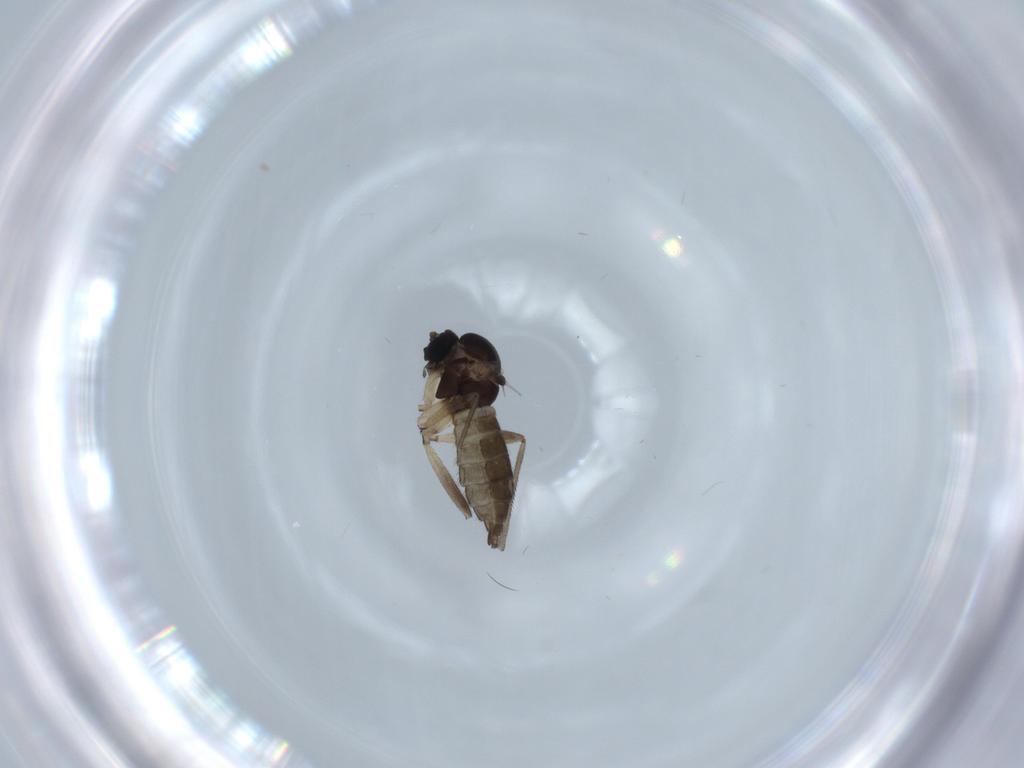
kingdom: Animalia
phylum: Arthropoda
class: Insecta
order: Diptera
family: Sciaridae
